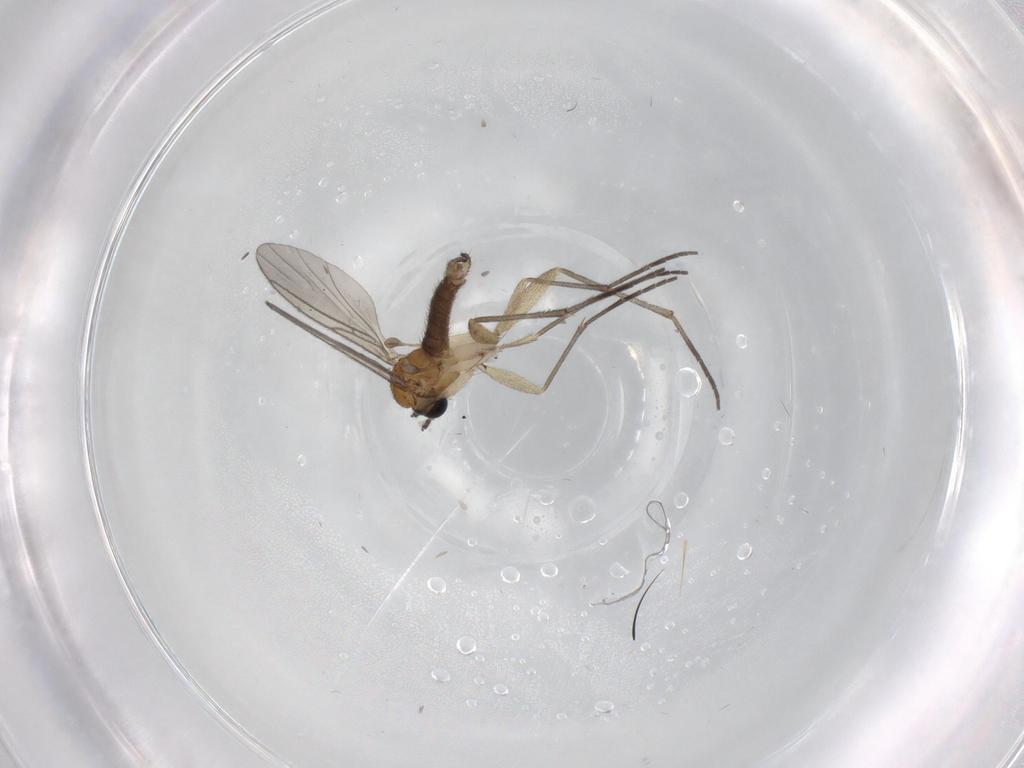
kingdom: Animalia
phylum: Arthropoda
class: Insecta
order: Diptera
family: Sciaridae
